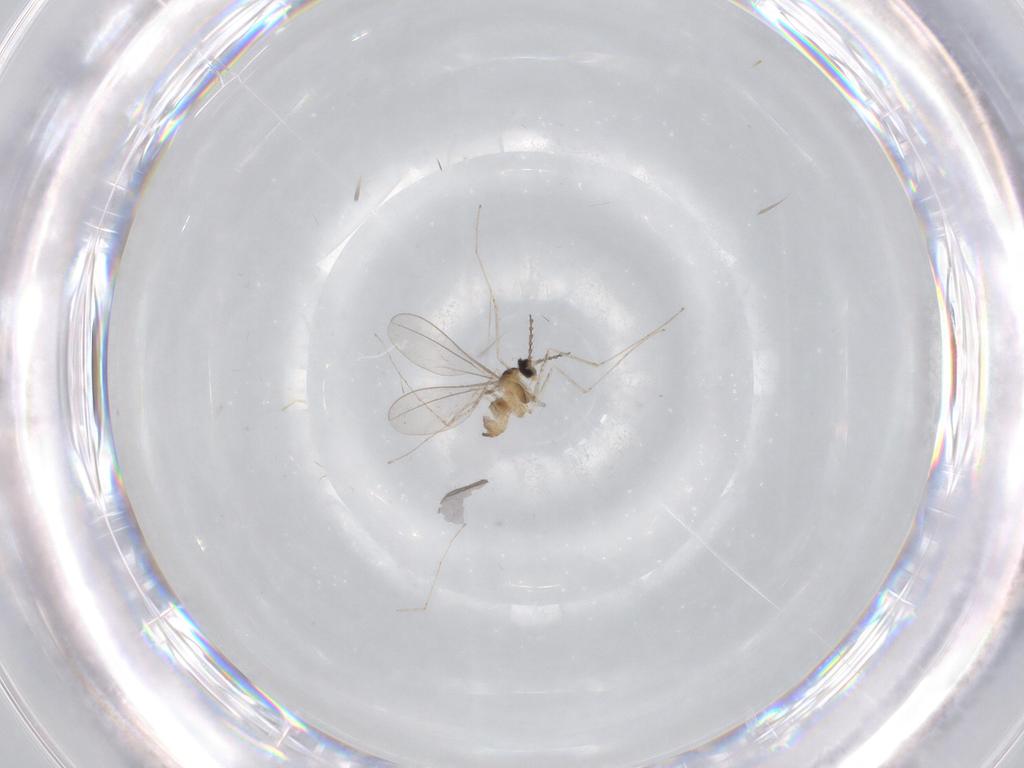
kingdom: Animalia
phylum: Arthropoda
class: Insecta
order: Diptera
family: Cecidomyiidae
